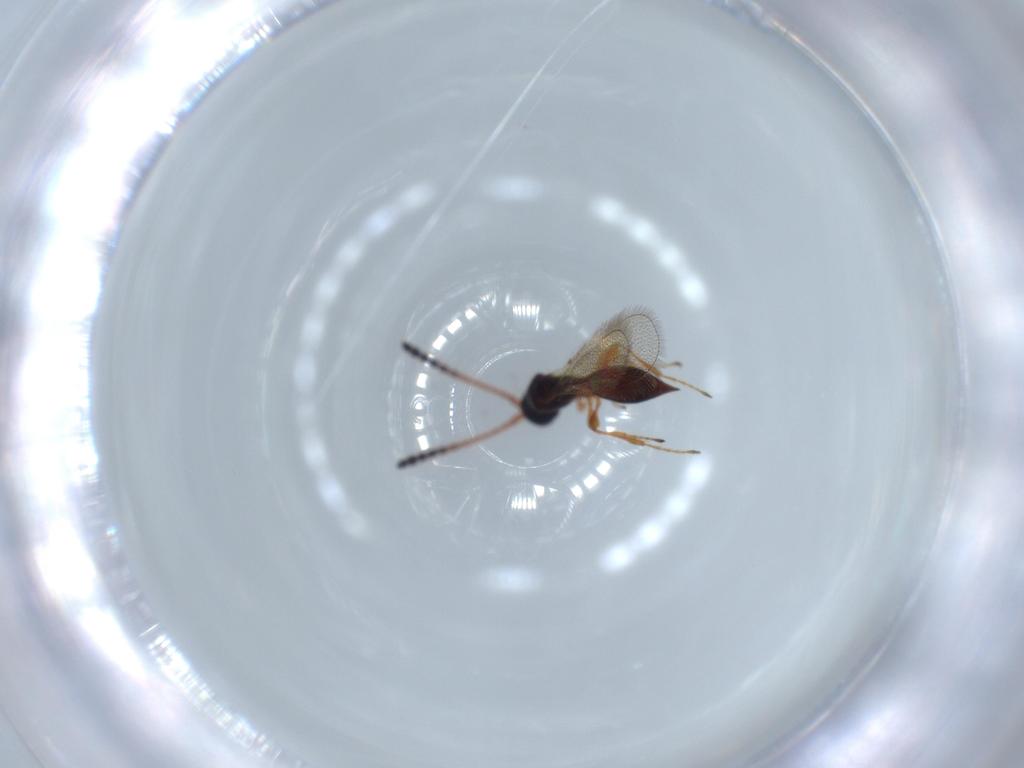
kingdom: Animalia
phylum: Arthropoda
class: Insecta
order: Hymenoptera
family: Diapriidae
